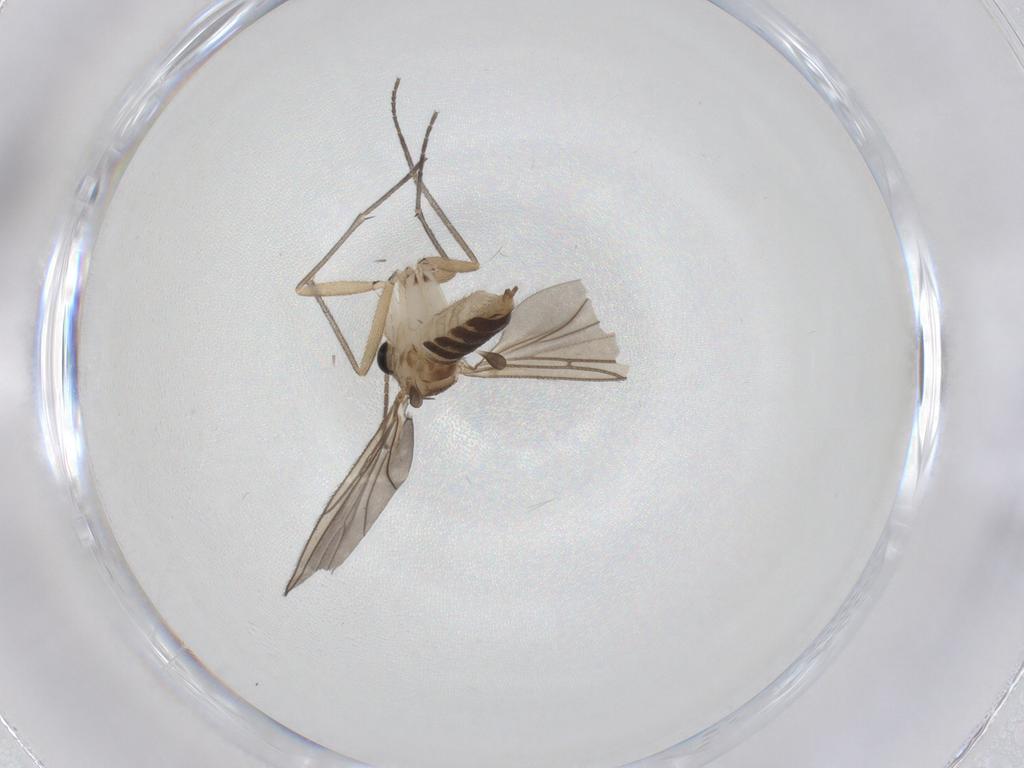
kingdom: Animalia
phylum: Arthropoda
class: Insecta
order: Diptera
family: Sciaridae
